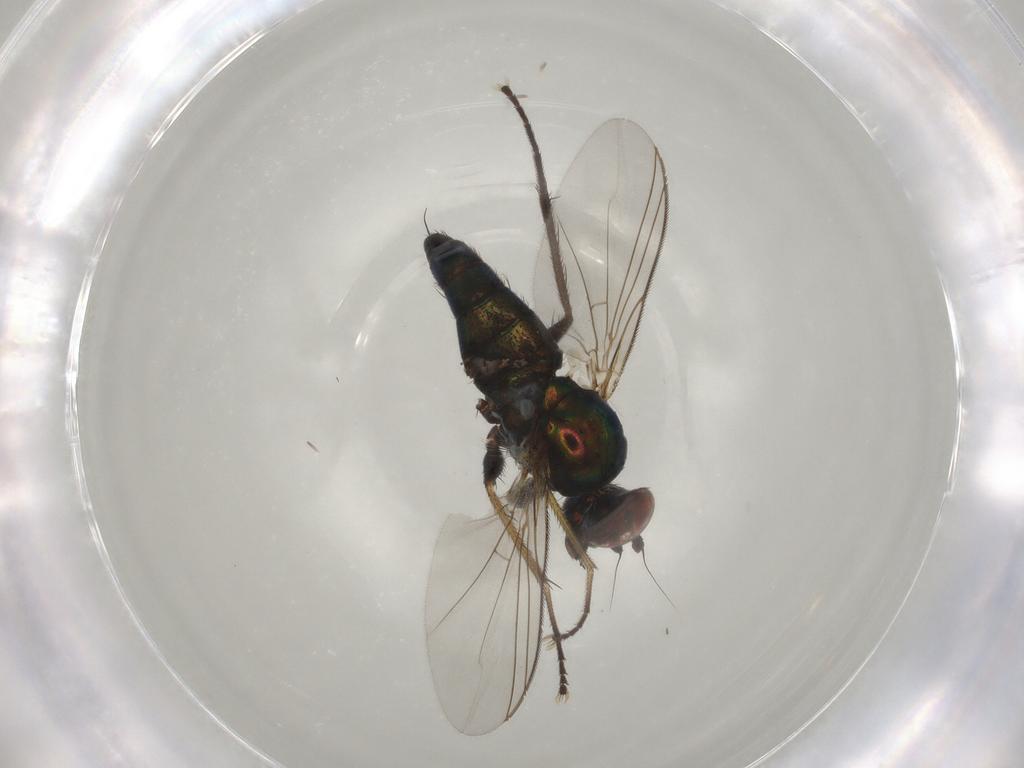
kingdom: Animalia
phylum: Arthropoda
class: Insecta
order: Diptera
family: Dolichopodidae
